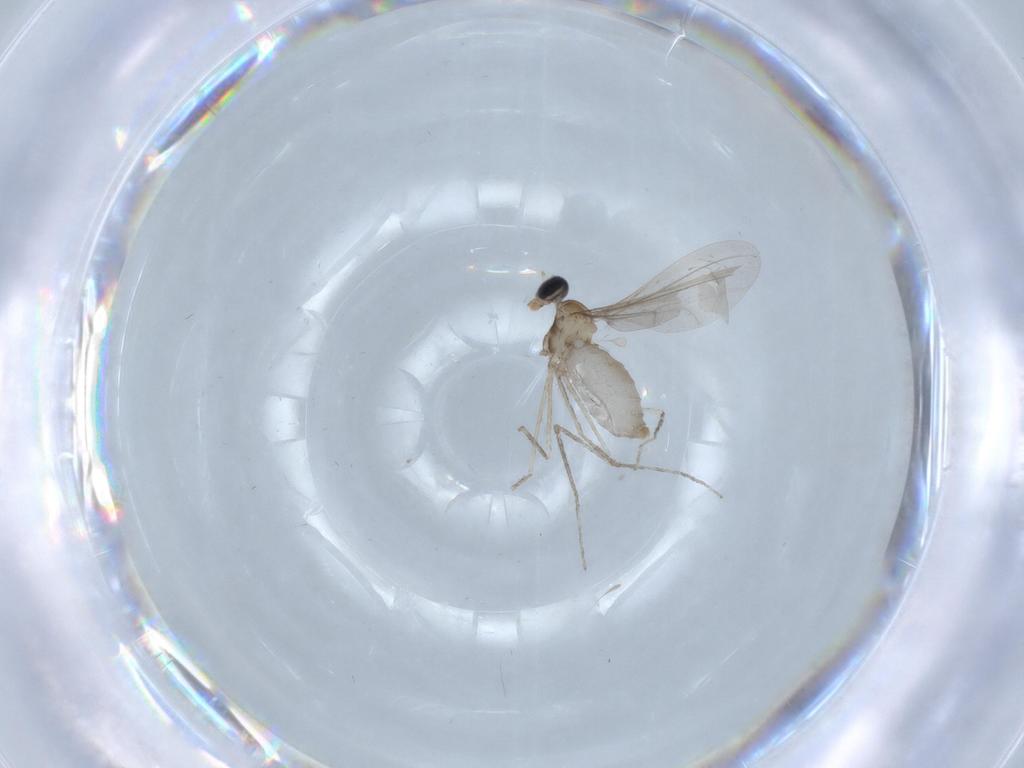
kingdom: Animalia
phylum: Arthropoda
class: Insecta
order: Diptera
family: Cecidomyiidae
